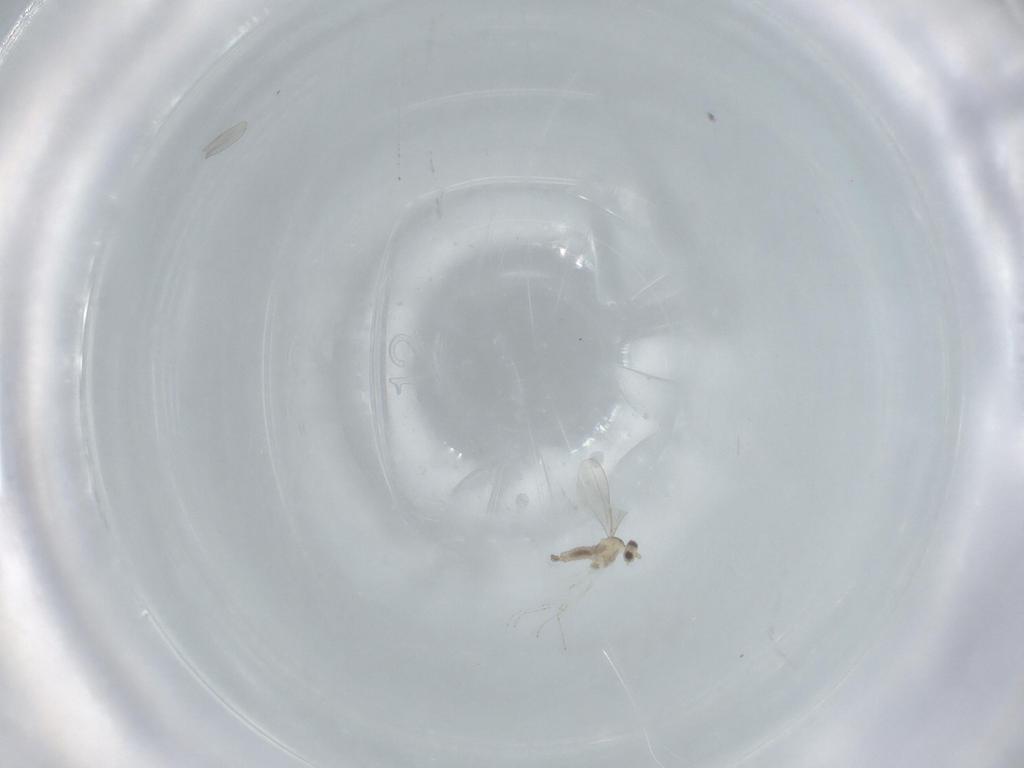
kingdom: Animalia
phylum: Arthropoda
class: Insecta
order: Diptera
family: Cecidomyiidae
